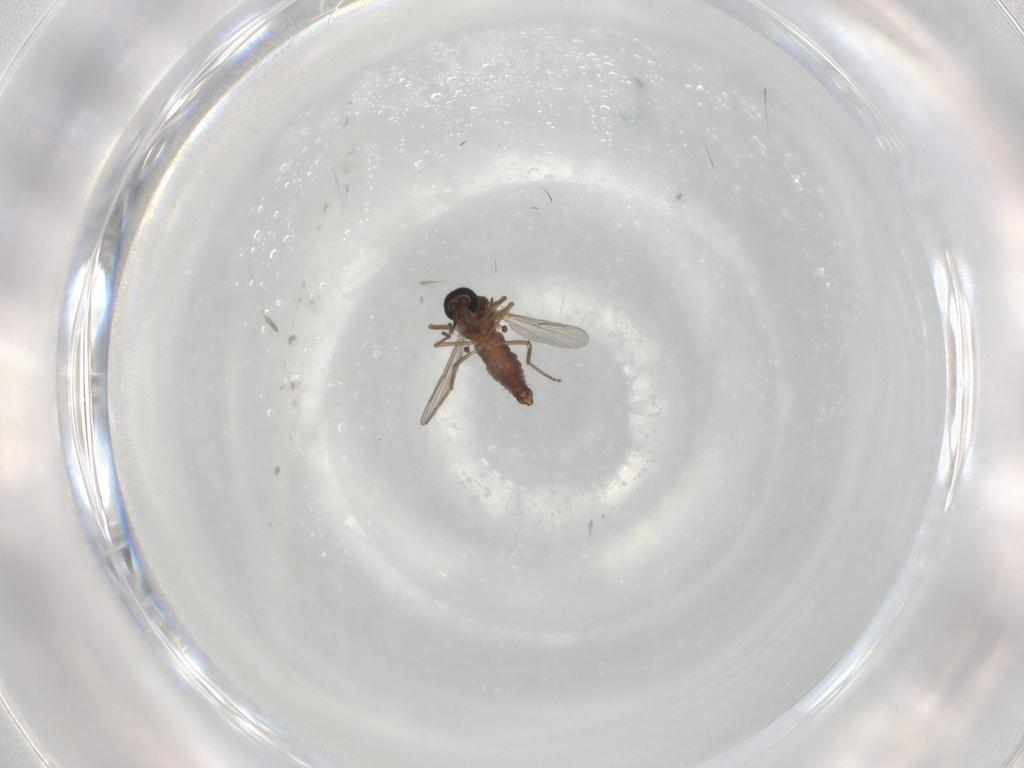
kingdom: Animalia
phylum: Arthropoda
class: Insecta
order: Diptera
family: Ceratopogonidae
